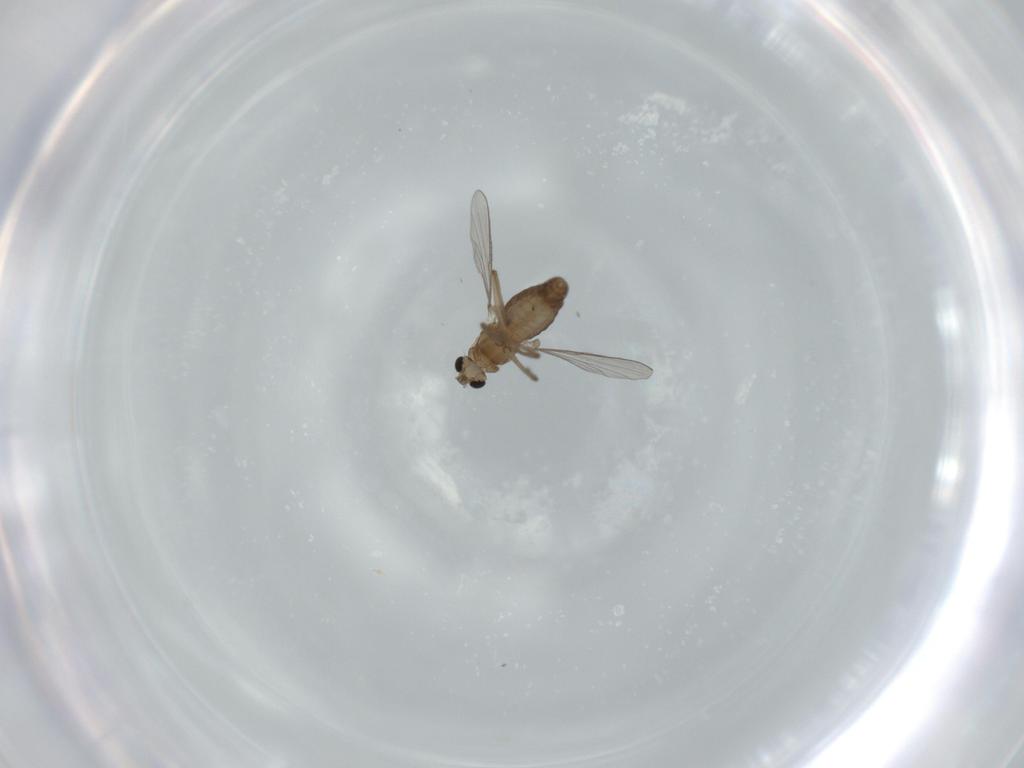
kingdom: Animalia
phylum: Arthropoda
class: Insecta
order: Diptera
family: Chironomidae
